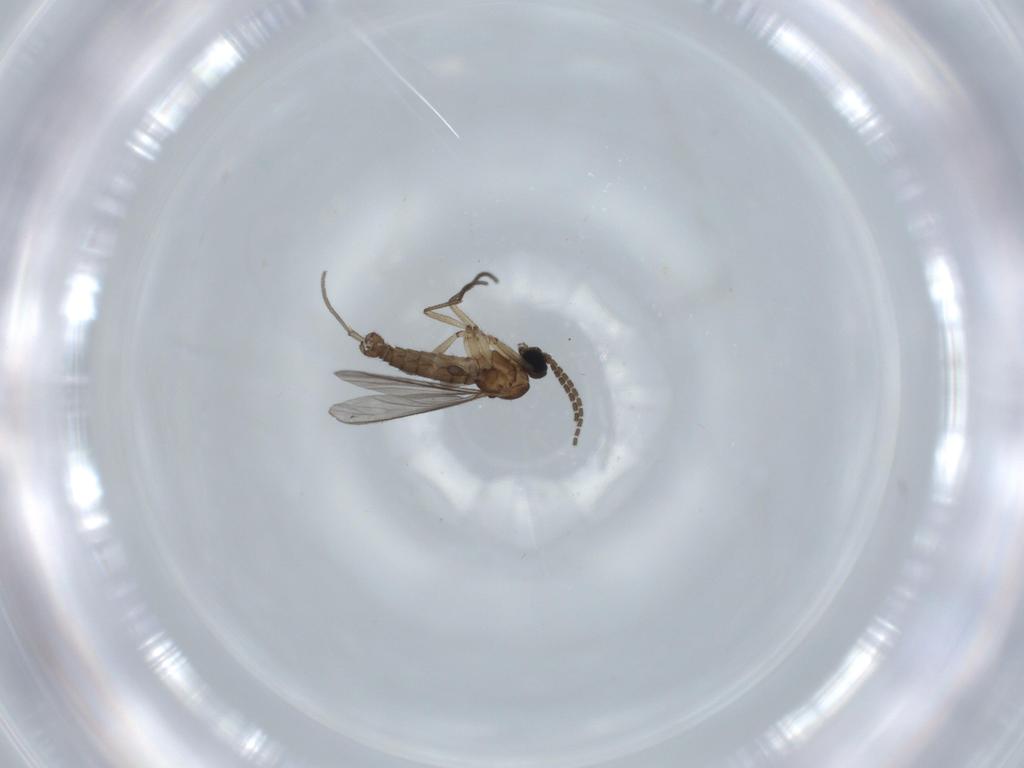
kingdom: Animalia
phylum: Arthropoda
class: Insecta
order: Diptera
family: Sciaridae
